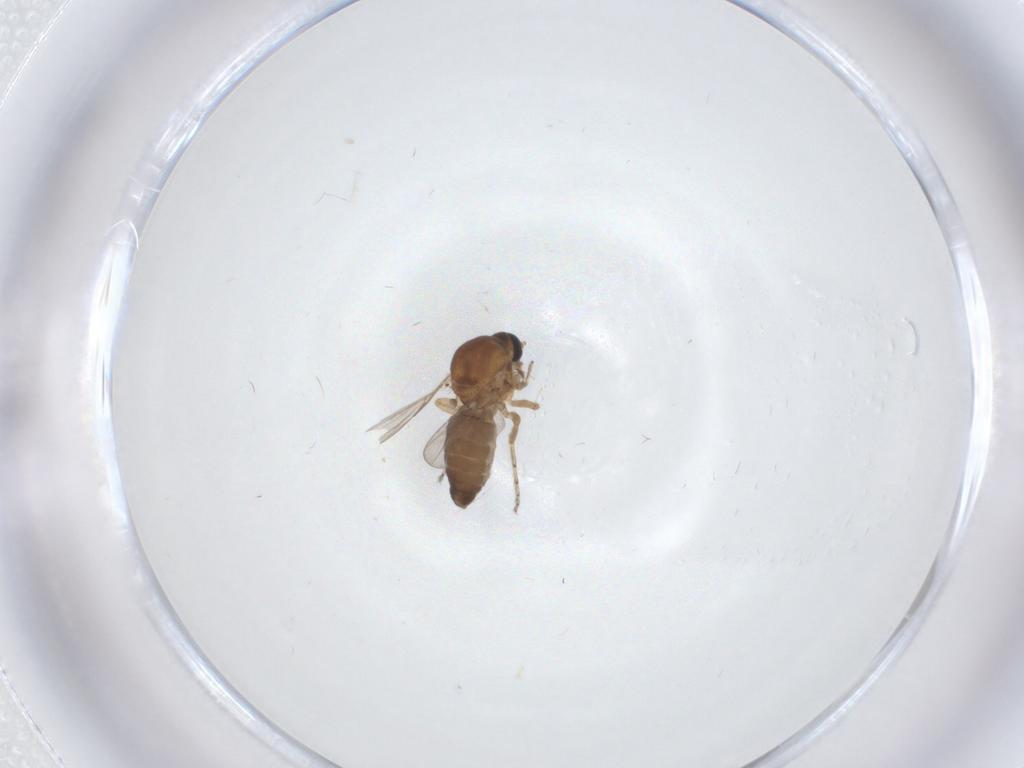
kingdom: Animalia
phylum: Arthropoda
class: Insecta
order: Diptera
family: Ceratopogonidae
